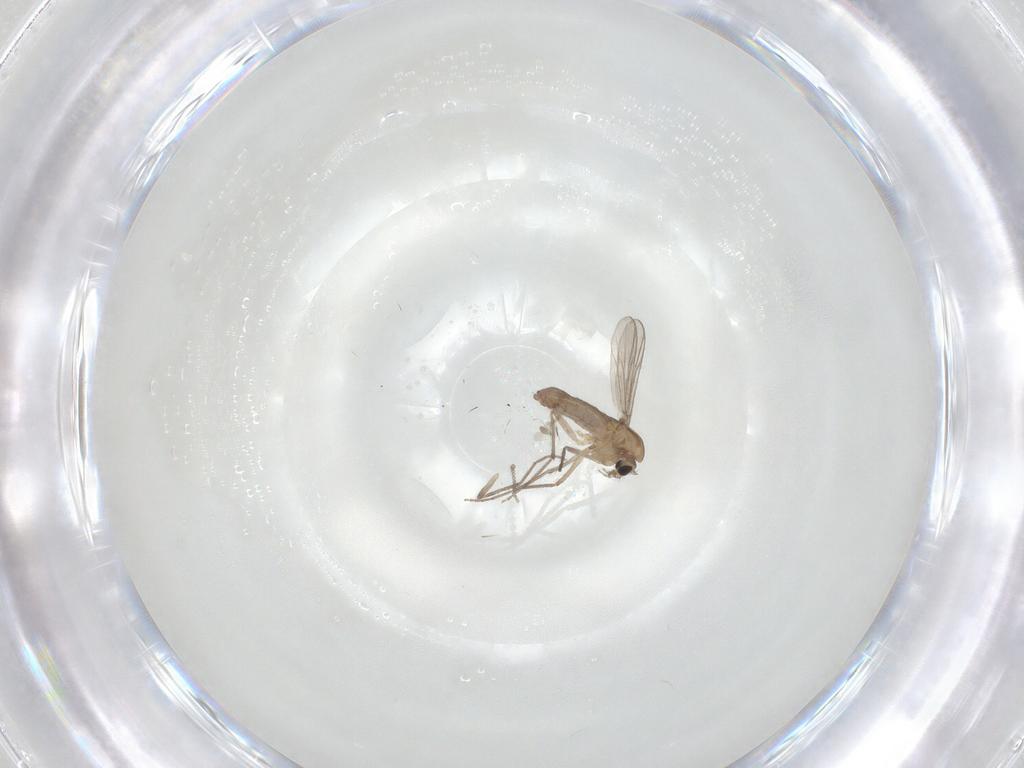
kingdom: Animalia
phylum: Arthropoda
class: Insecta
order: Diptera
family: Chironomidae
